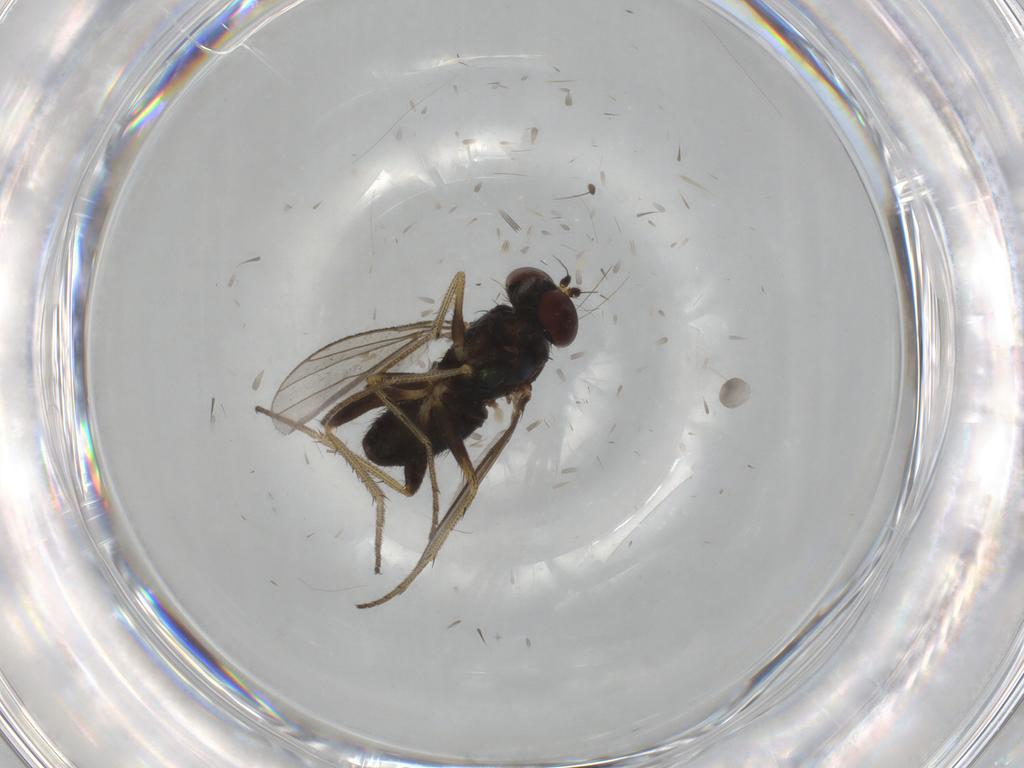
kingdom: Animalia
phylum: Arthropoda
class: Insecta
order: Diptera
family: Dolichopodidae
